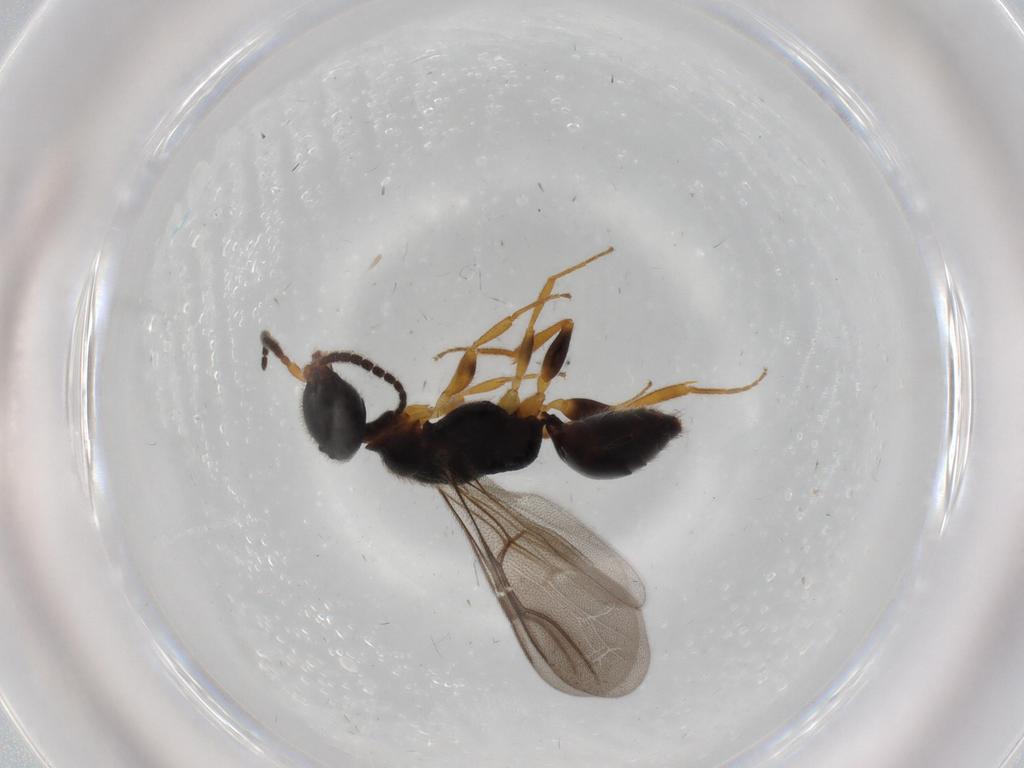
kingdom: Animalia
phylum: Arthropoda
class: Insecta
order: Hymenoptera
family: Bethylidae
